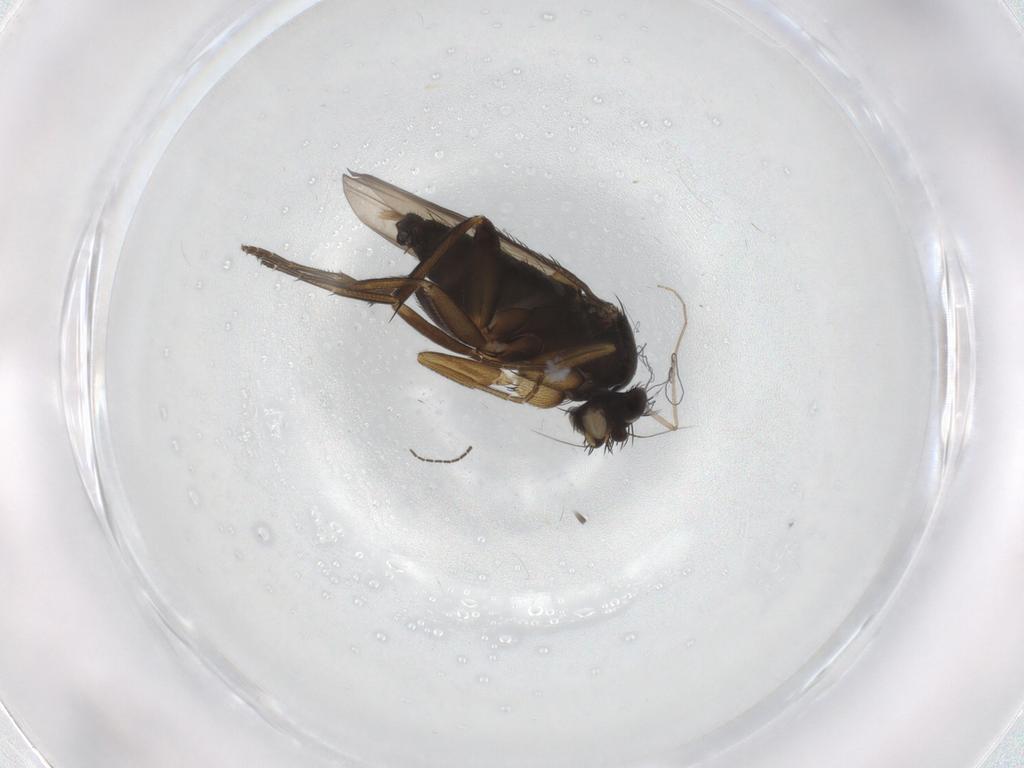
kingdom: Animalia
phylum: Arthropoda
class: Insecta
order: Diptera
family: Phoridae
